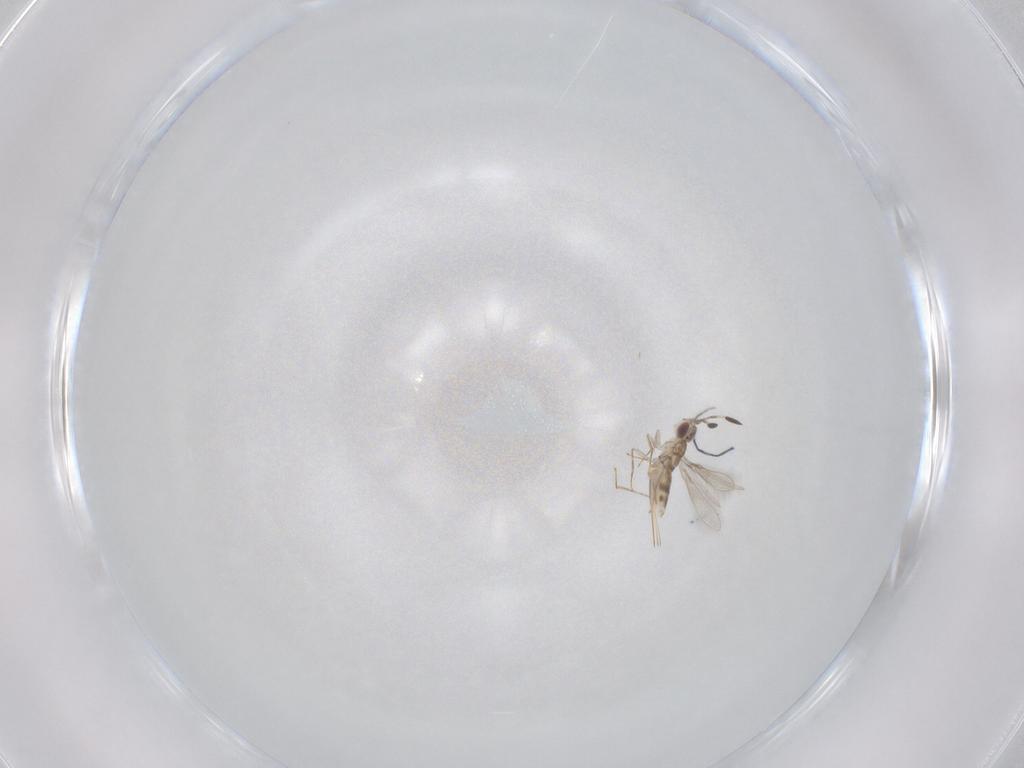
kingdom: Animalia
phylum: Arthropoda
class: Insecta
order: Hymenoptera
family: Mymaridae
